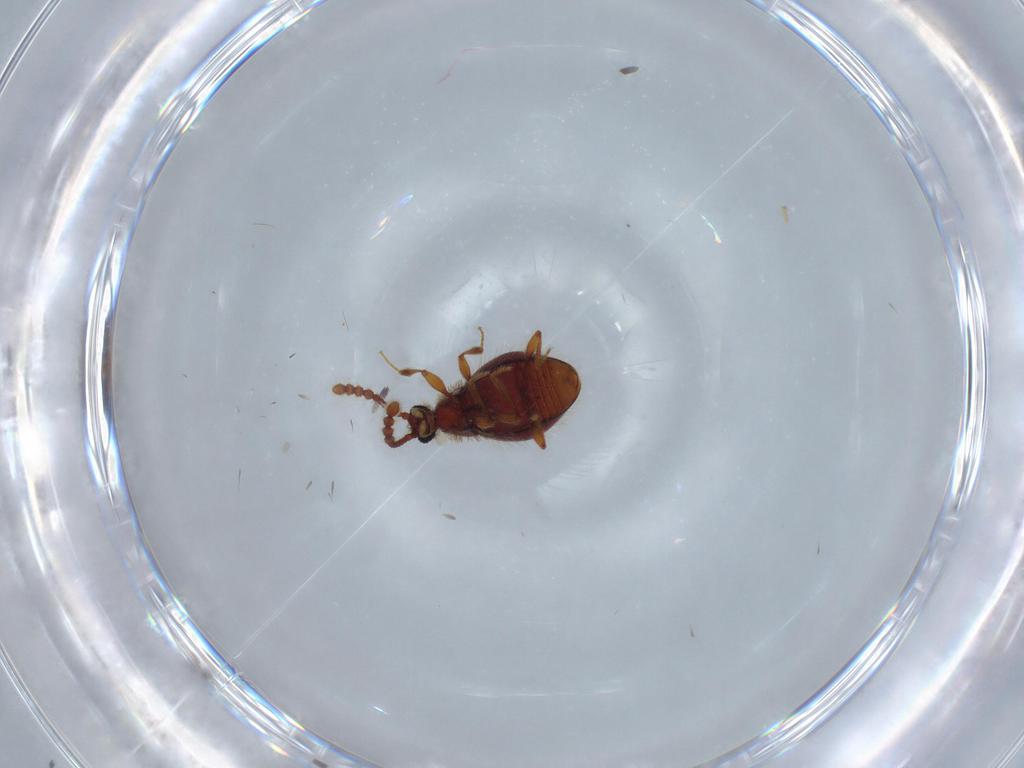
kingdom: Animalia
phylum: Arthropoda
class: Insecta
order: Coleoptera
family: Staphylinidae
